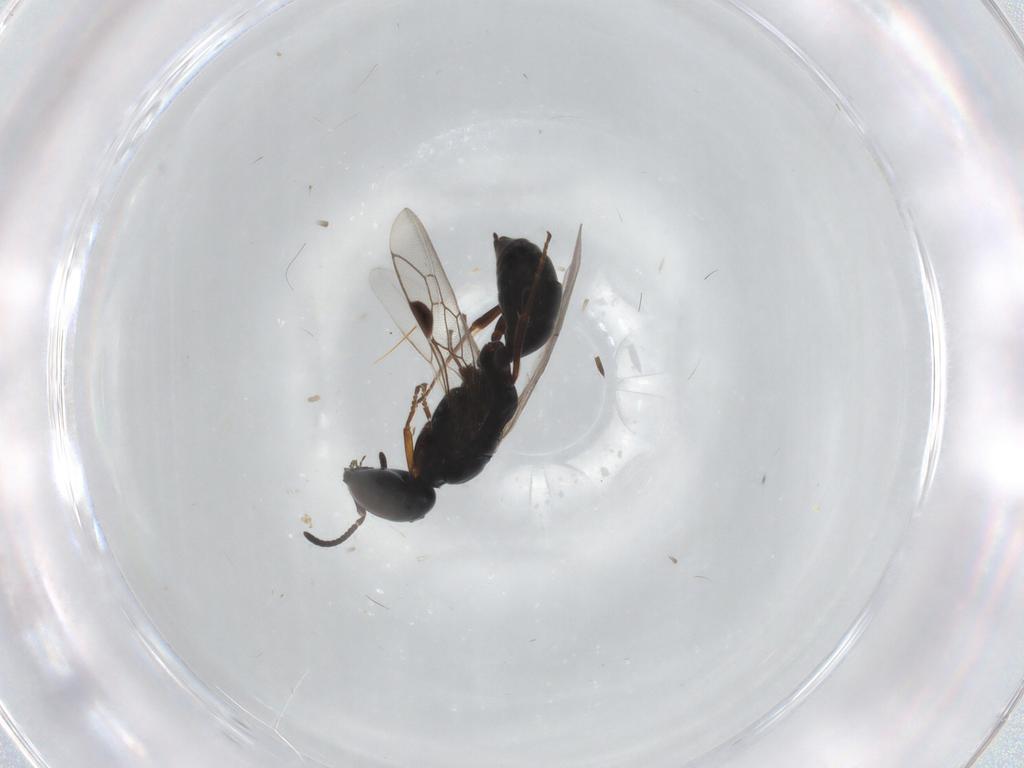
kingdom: Animalia
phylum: Arthropoda
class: Insecta
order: Hymenoptera
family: Pemphredonidae
